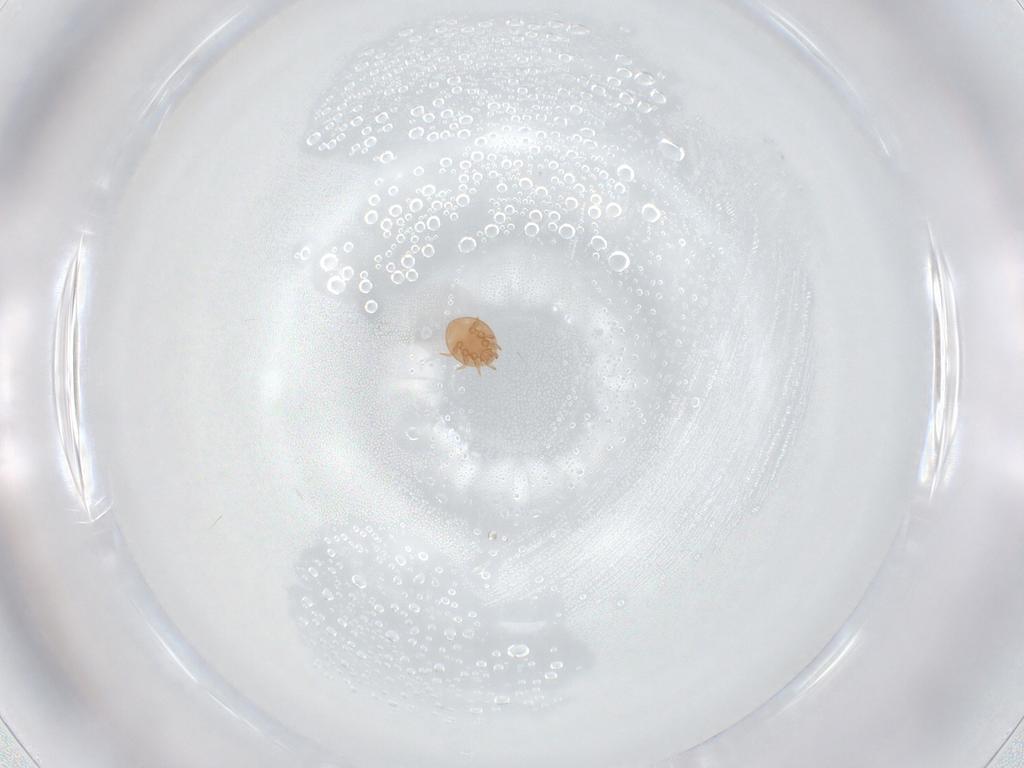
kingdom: Animalia
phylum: Arthropoda
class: Arachnida
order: Mesostigmata
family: Trematuridae
